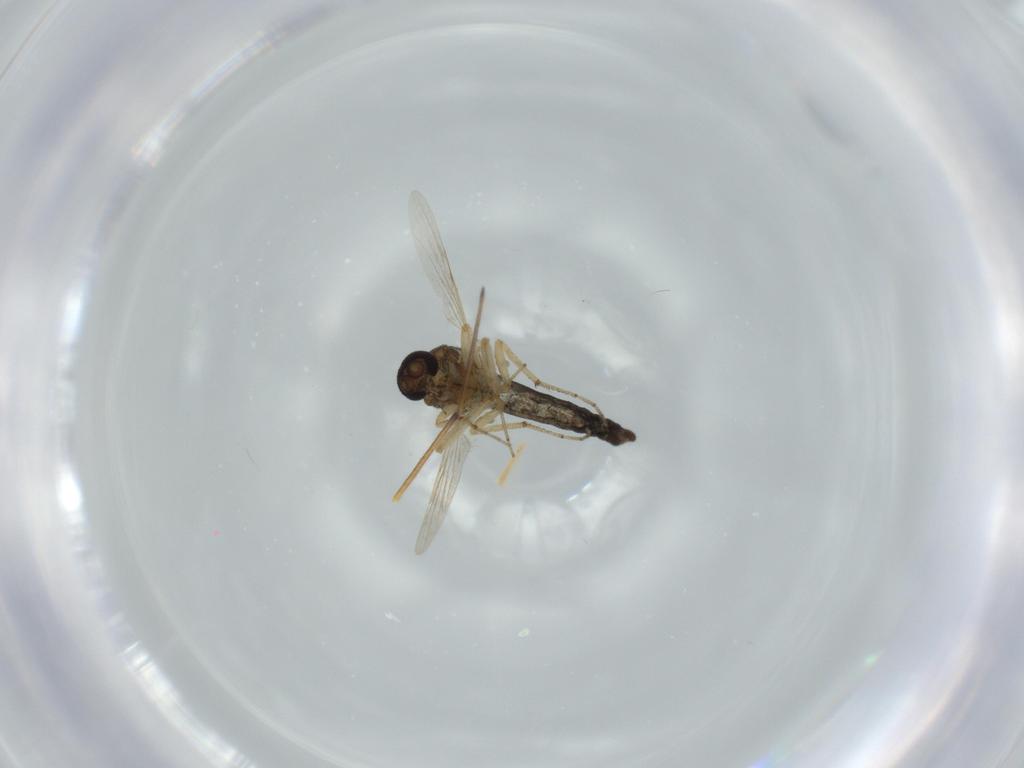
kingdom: Animalia
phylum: Arthropoda
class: Insecta
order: Diptera
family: Ceratopogonidae
